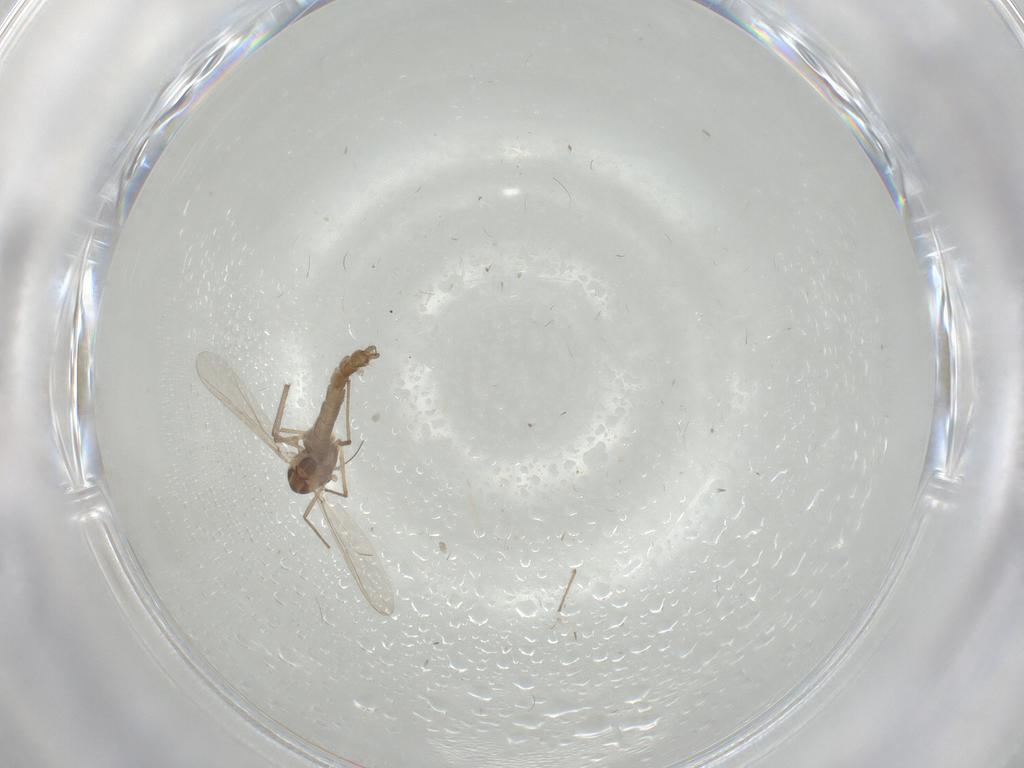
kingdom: Animalia
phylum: Arthropoda
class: Insecta
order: Diptera
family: Chironomidae
